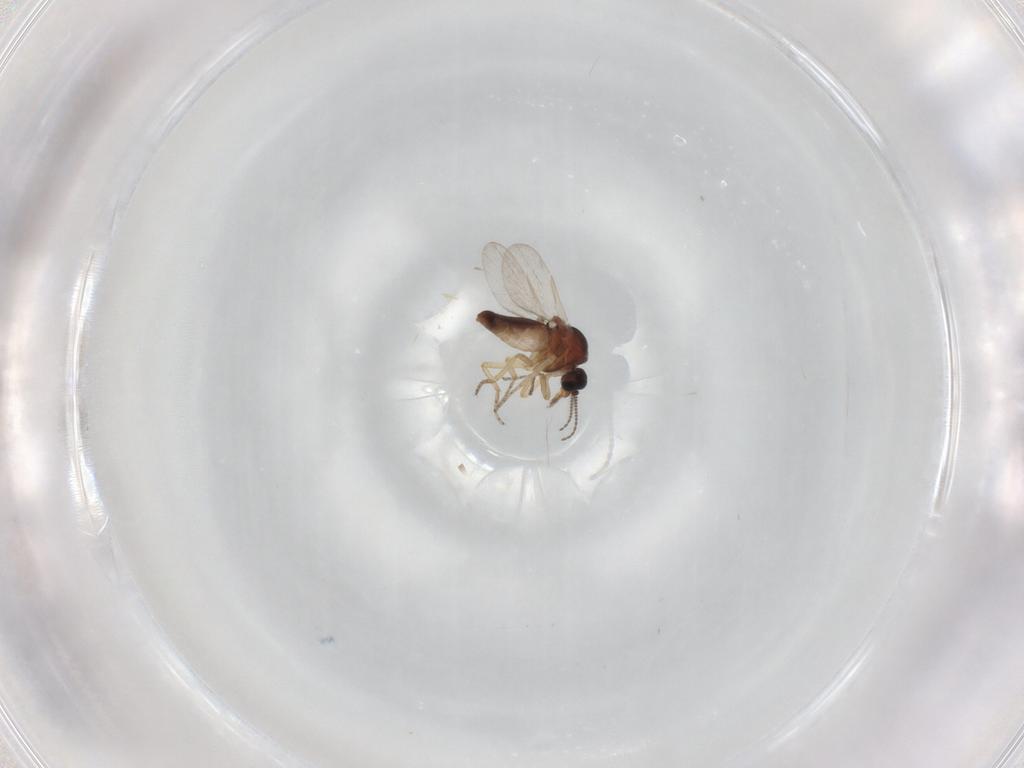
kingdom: Animalia
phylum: Arthropoda
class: Insecta
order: Diptera
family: Ceratopogonidae
